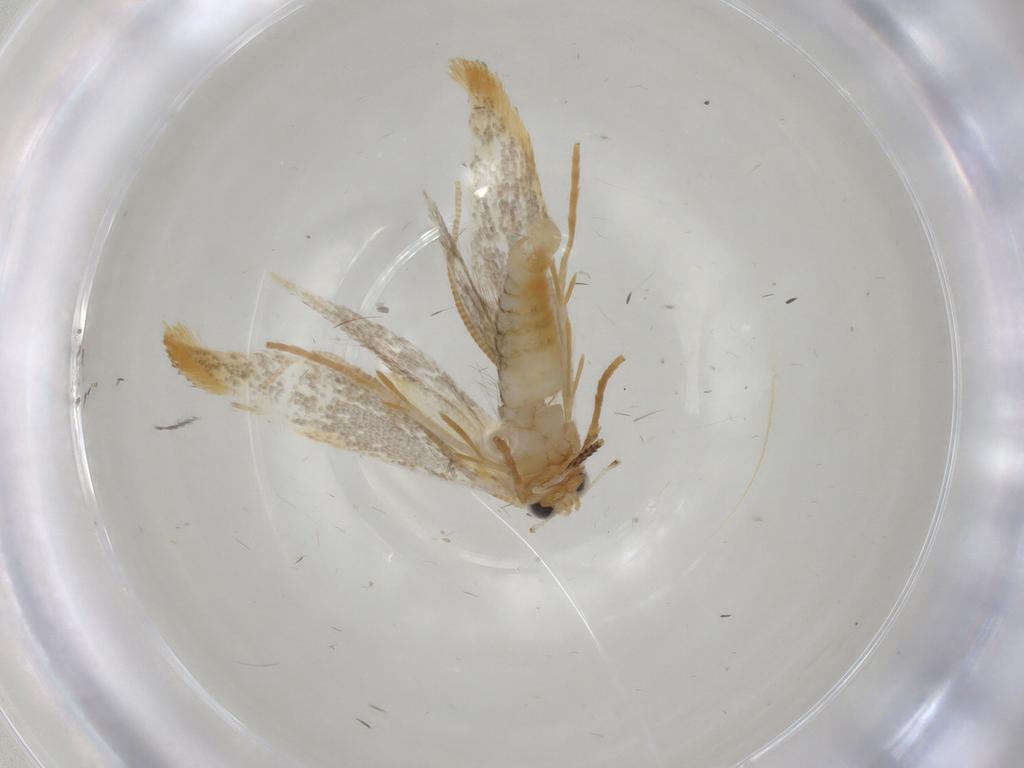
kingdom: Animalia
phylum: Arthropoda
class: Insecta
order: Lepidoptera
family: Tineidae
